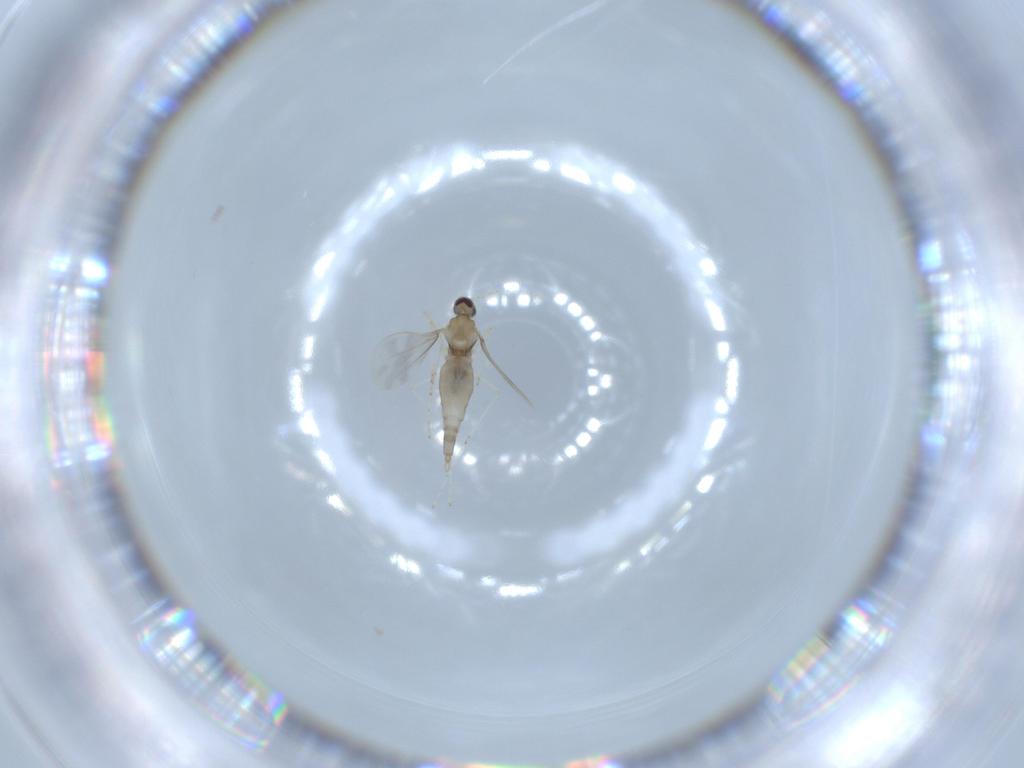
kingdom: Animalia
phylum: Arthropoda
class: Insecta
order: Diptera
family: Cecidomyiidae
